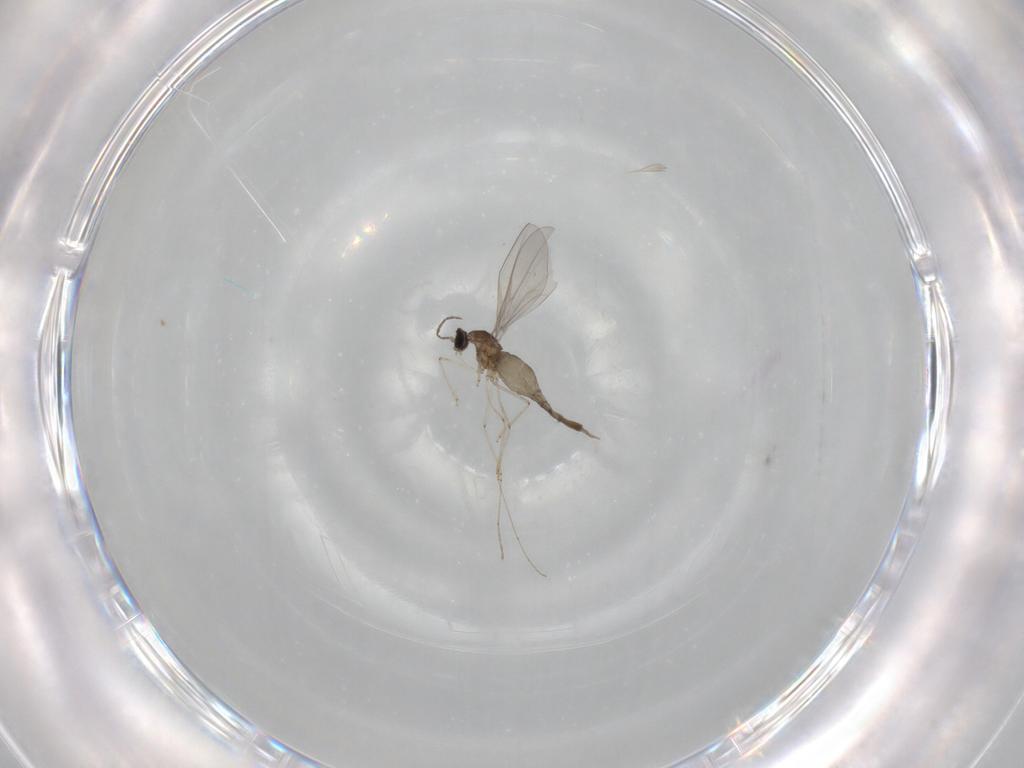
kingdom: Animalia
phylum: Arthropoda
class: Insecta
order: Diptera
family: Cecidomyiidae
